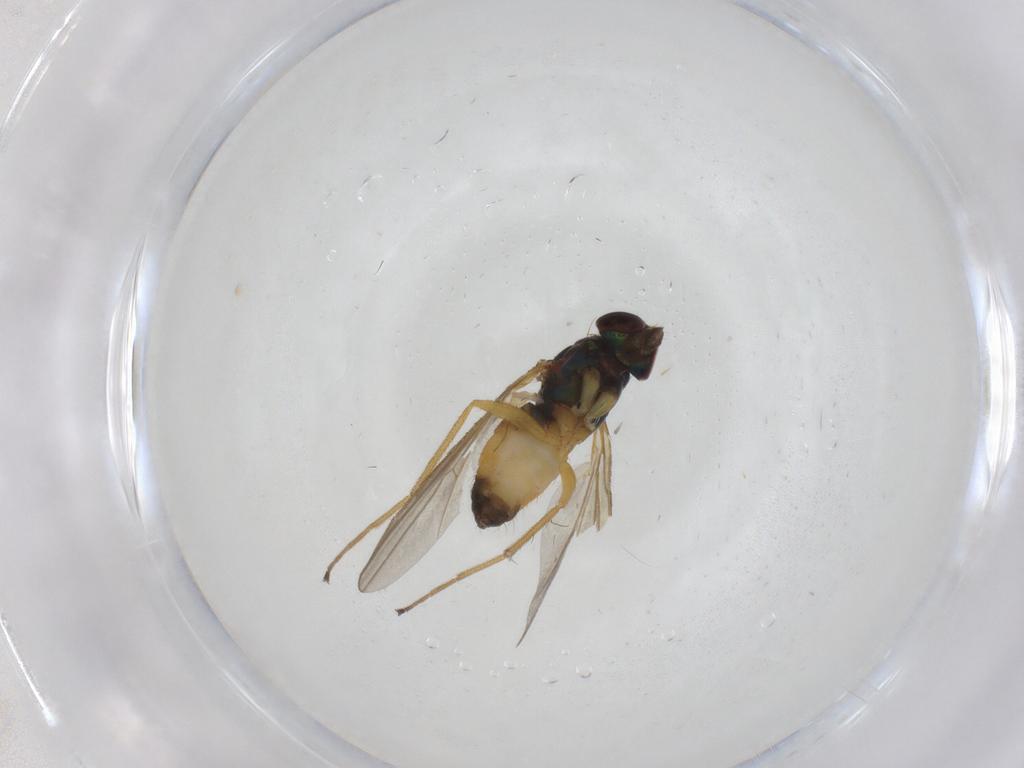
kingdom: Animalia
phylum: Arthropoda
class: Insecta
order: Diptera
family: Dolichopodidae
